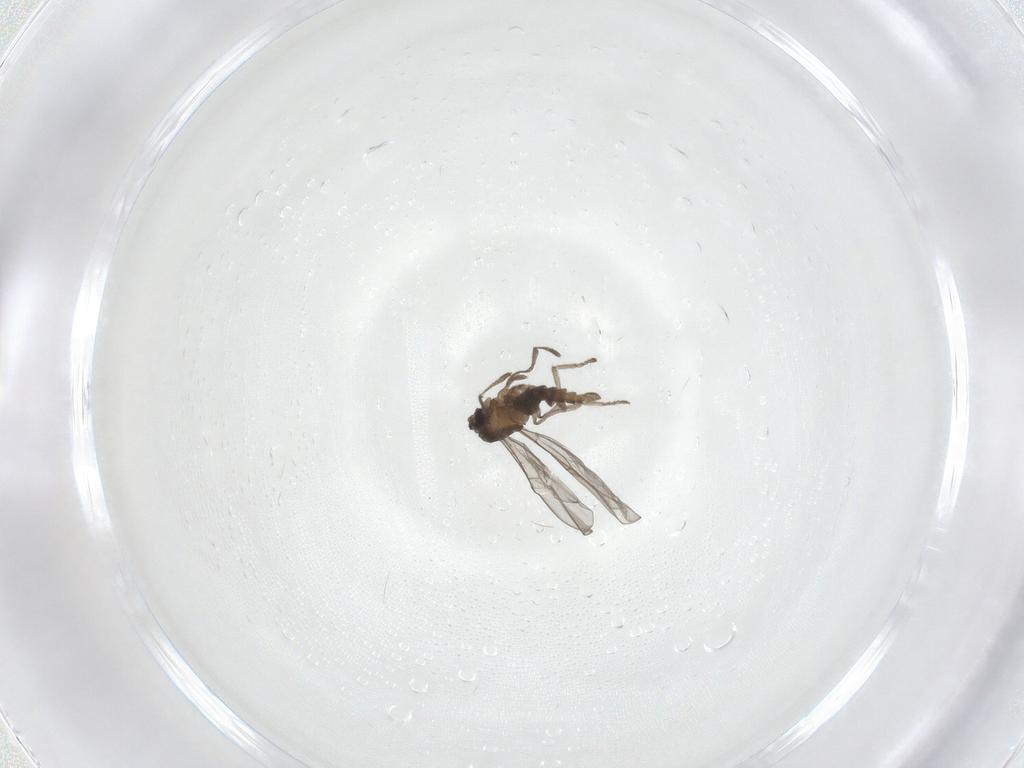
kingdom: Animalia
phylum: Arthropoda
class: Insecta
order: Diptera
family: Cecidomyiidae
